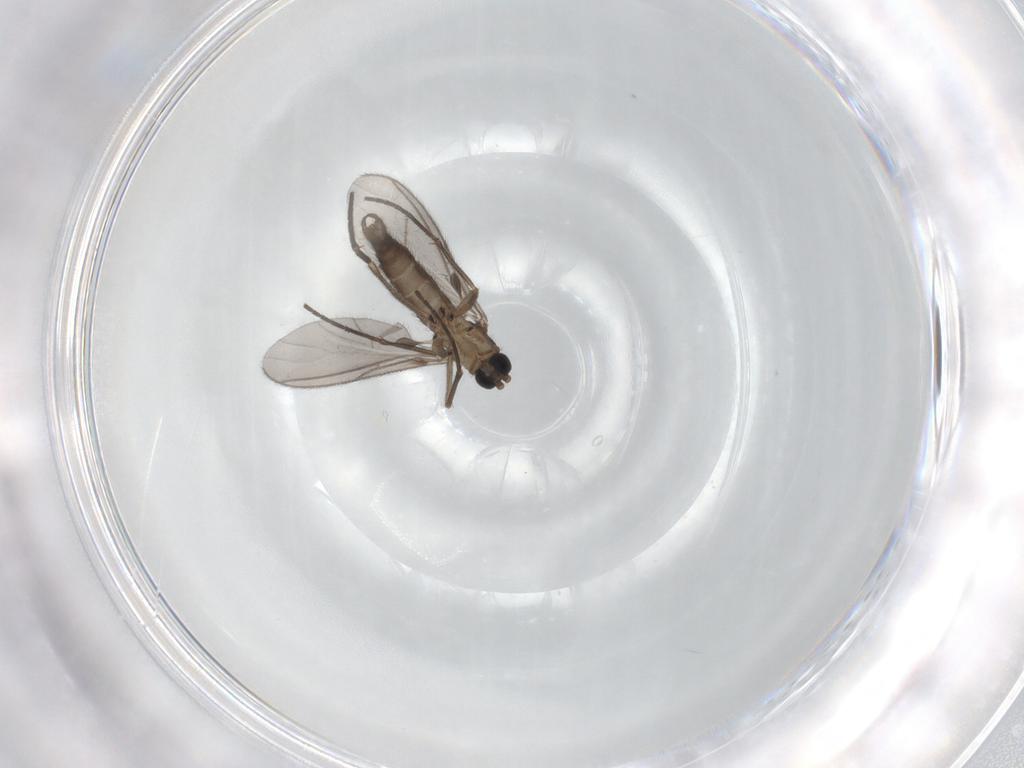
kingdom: Animalia
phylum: Arthropoda
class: Insecta
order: Diptera
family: Sciaridae
